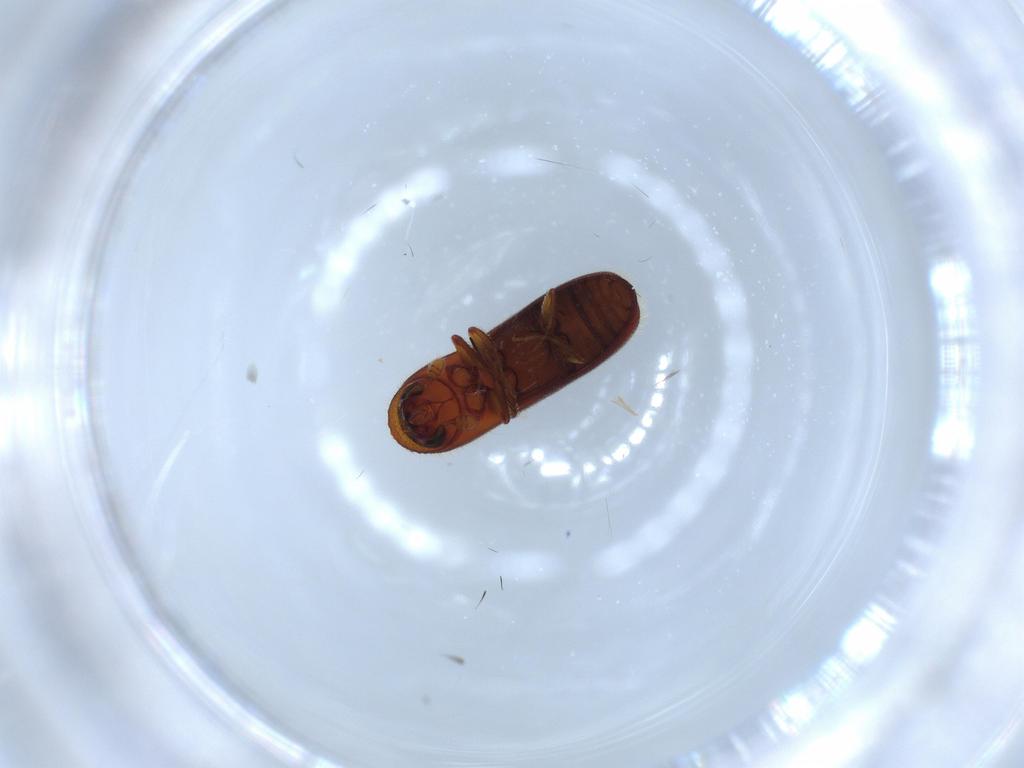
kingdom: Animalia
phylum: Arthropoda
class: Insecta
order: Coleoptera
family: Curculionidae
